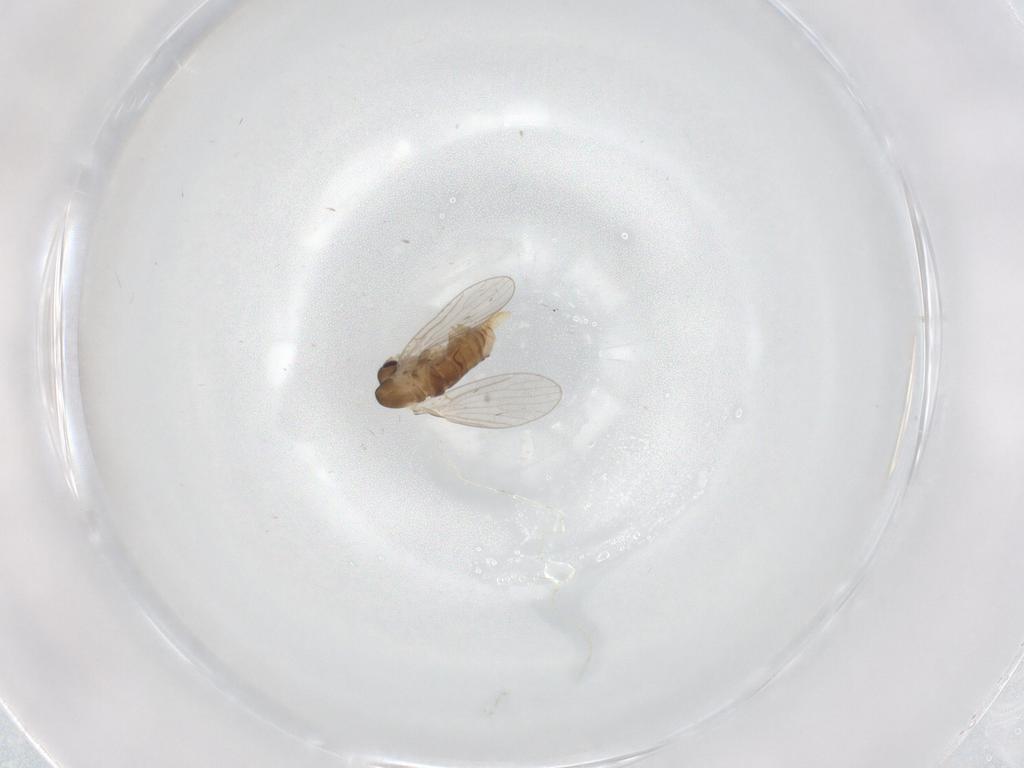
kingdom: Animalia
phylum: Arthropoda
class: Insecta
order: Diptera
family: Psychodidae
